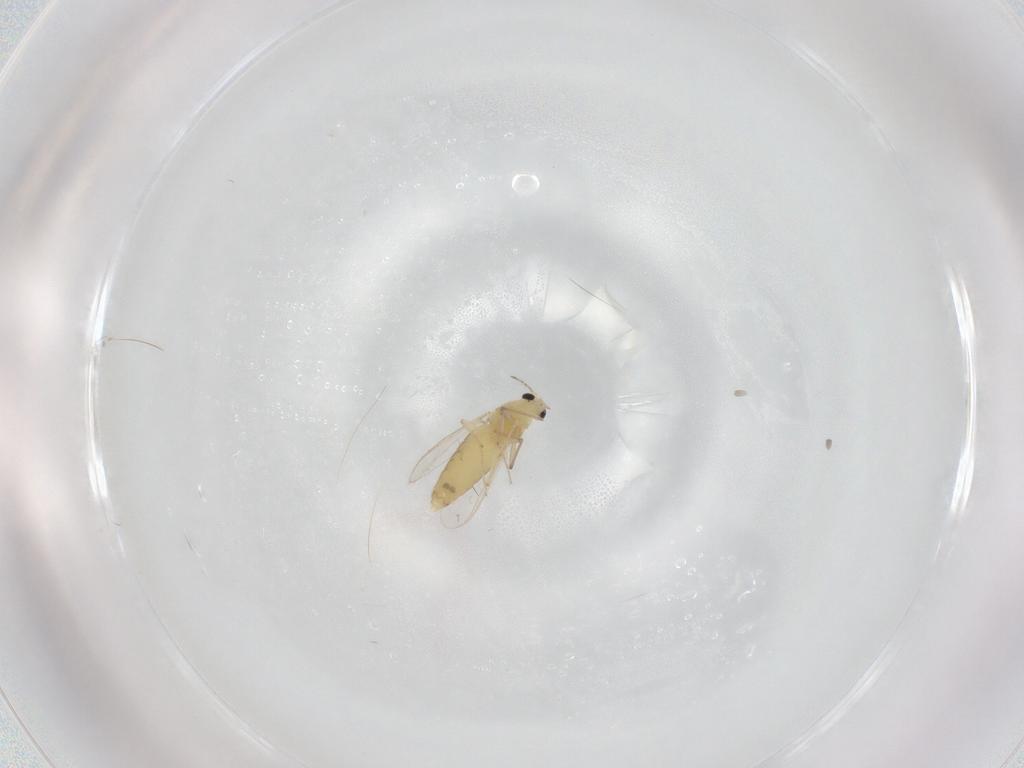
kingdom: Animalia
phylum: Arthropoda
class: Insecta
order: Diptera
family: Chironomidae
